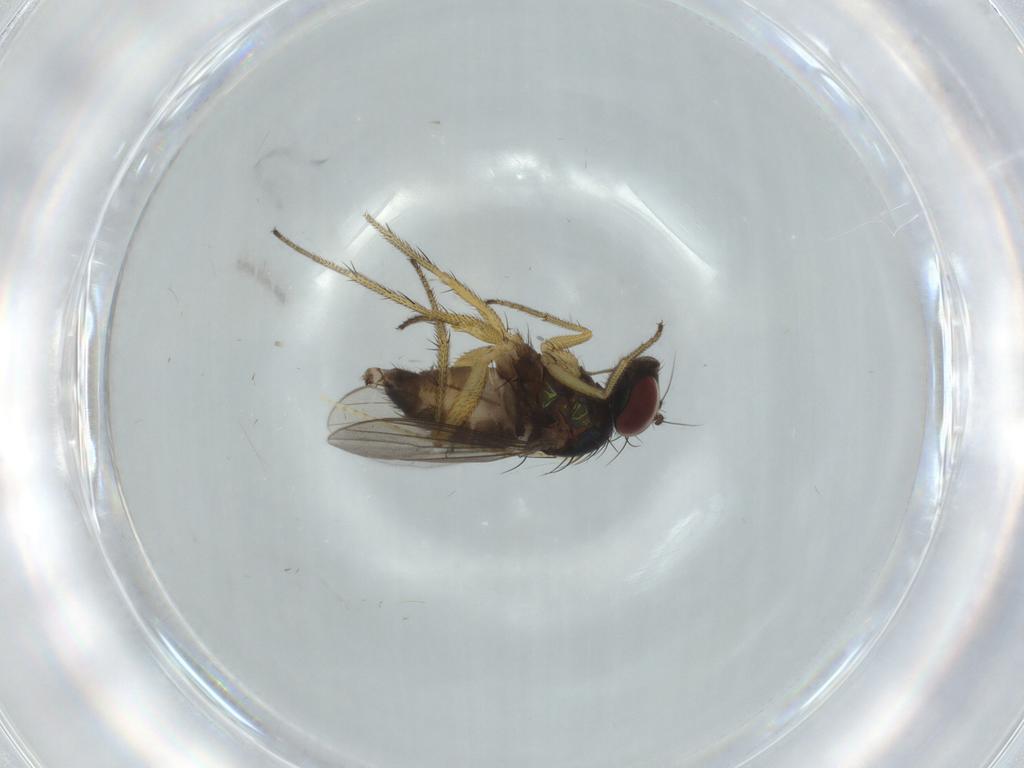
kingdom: Animalia
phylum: Arthropoda
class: Insecta
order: Diptera
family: Dolichopodidae
